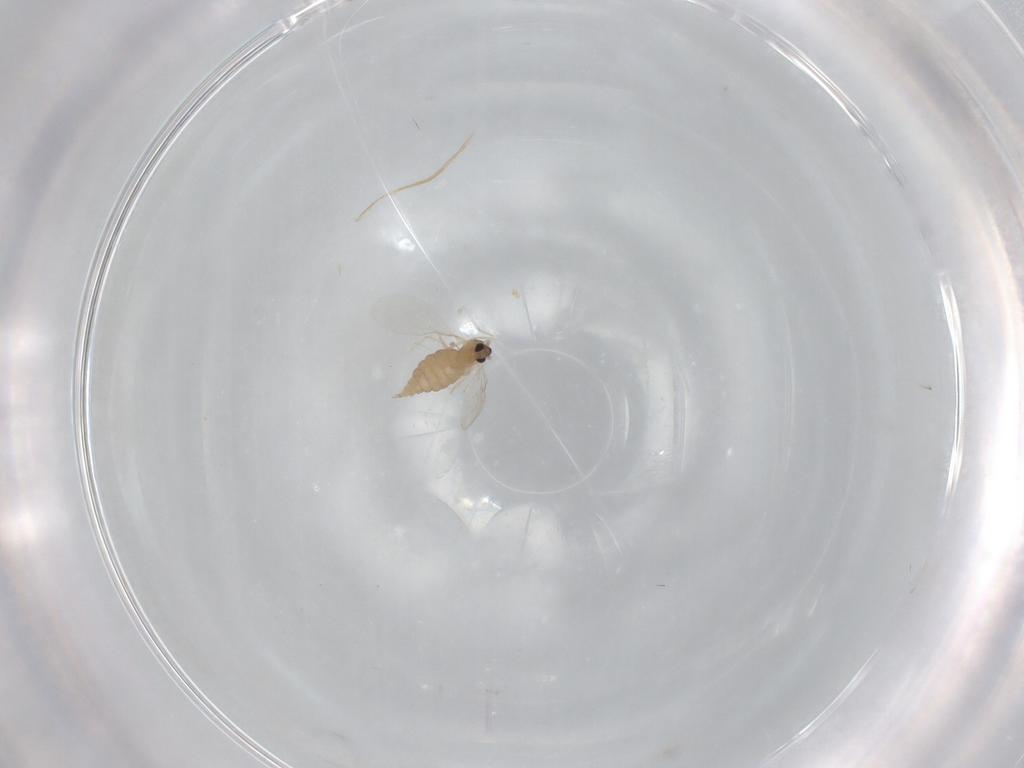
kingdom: Animalia
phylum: Arthropoda
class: Insecta
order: Diptera
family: Cecidomyiidae
